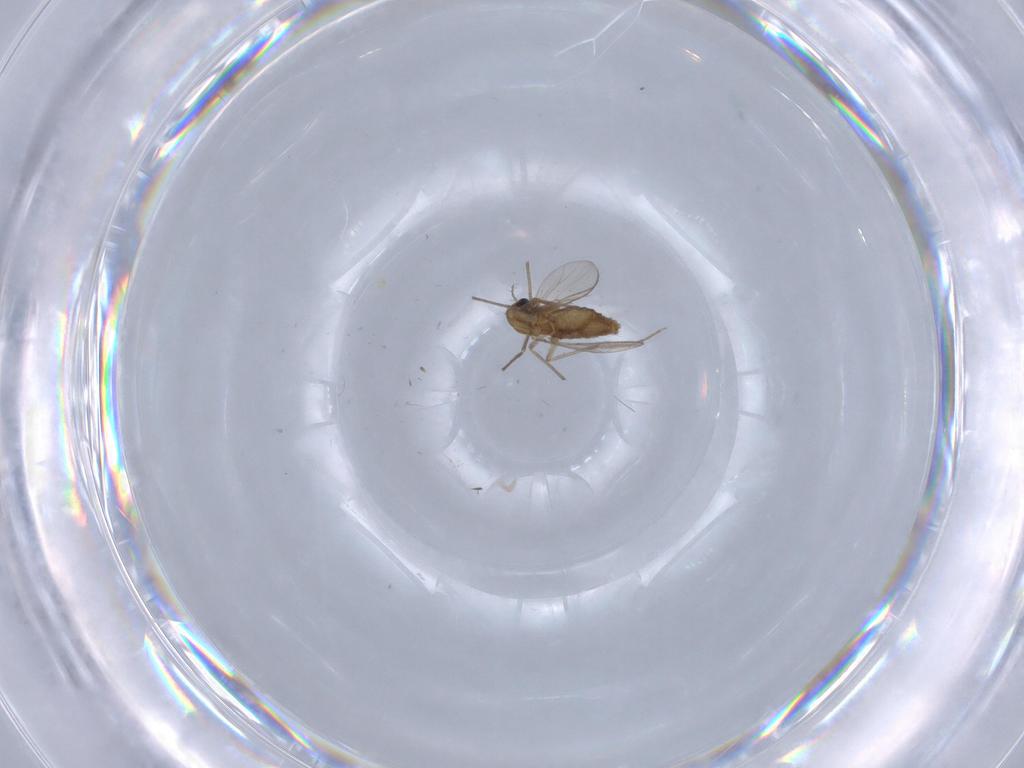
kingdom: Animalia
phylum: Arthropoda
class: Insecta
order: Diptera
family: Chironomidae
